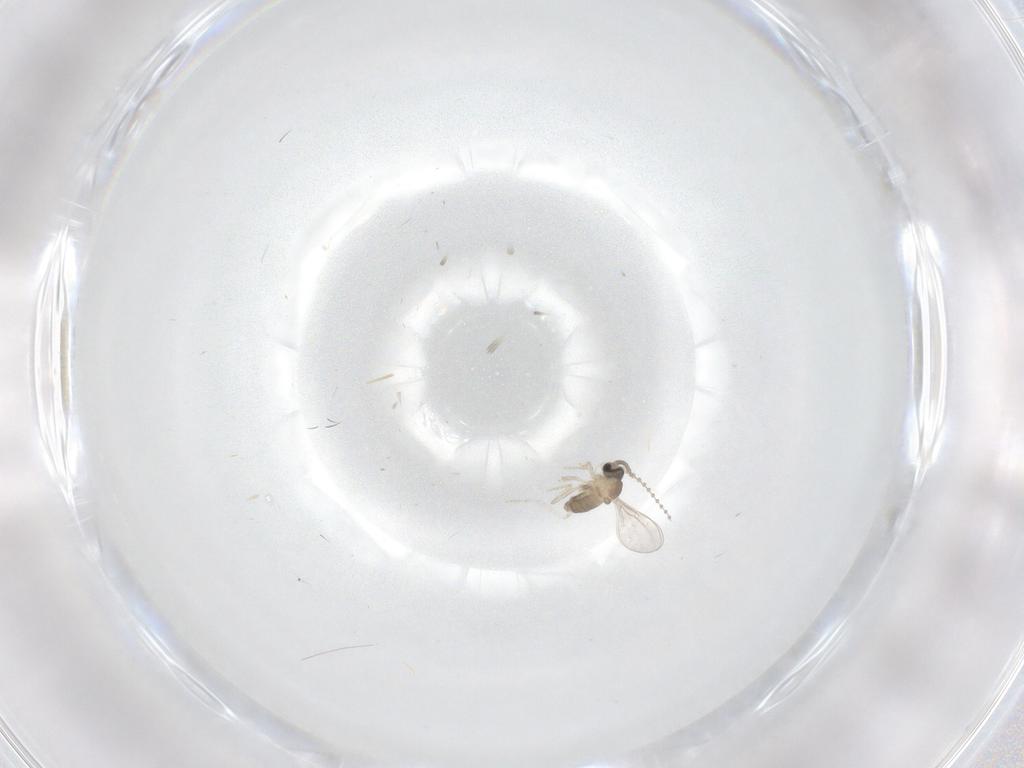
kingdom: Animalia
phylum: Arthropoda
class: Insecta
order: Diptera
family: Cecidomyiidae
